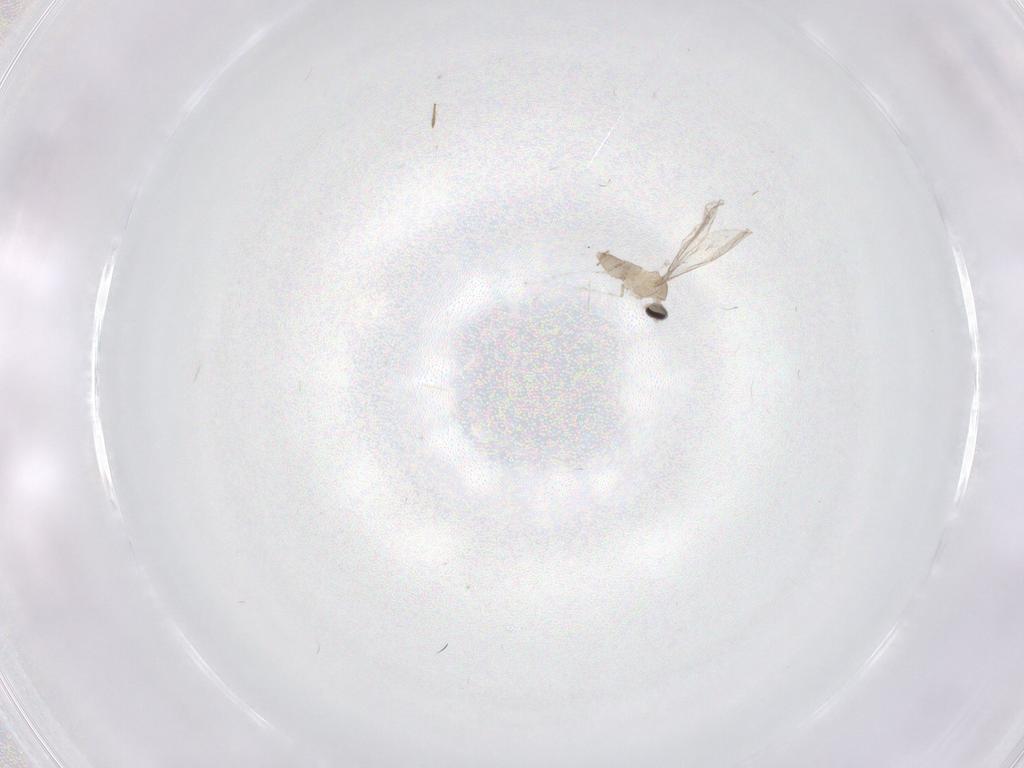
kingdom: Animalia
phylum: Arthropoda
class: Insecta
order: Diptera
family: Cecidomyiidae
